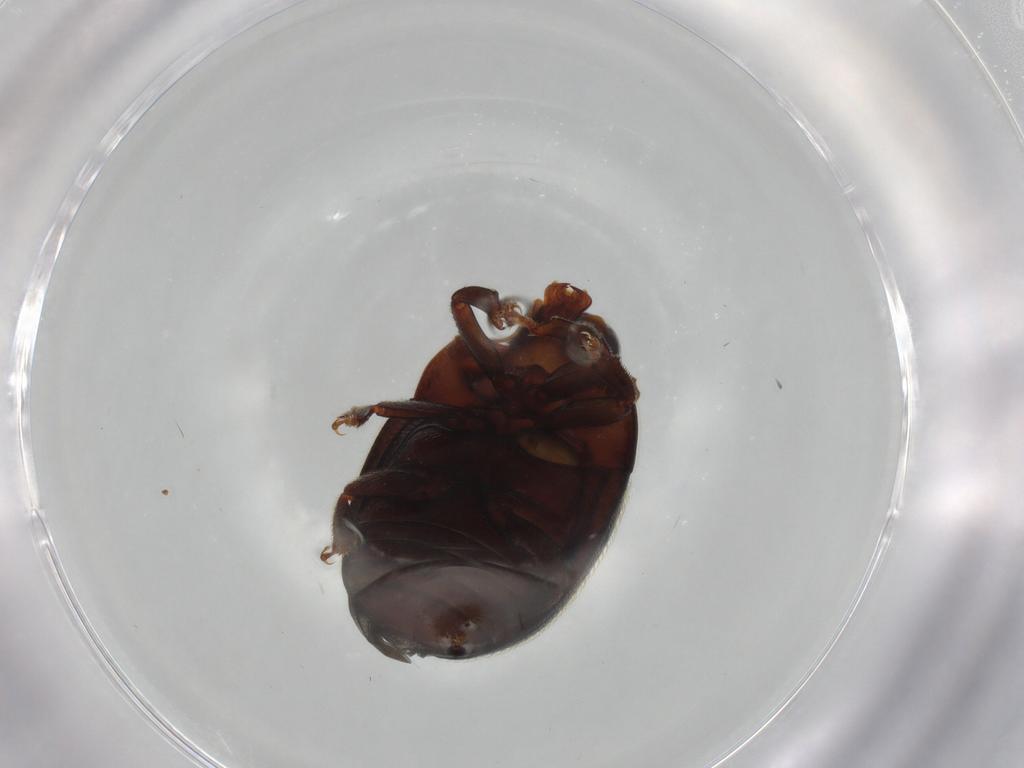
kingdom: Animalia
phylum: Arthropoda
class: Insecta
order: Coleoptera
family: Nitidulidae
